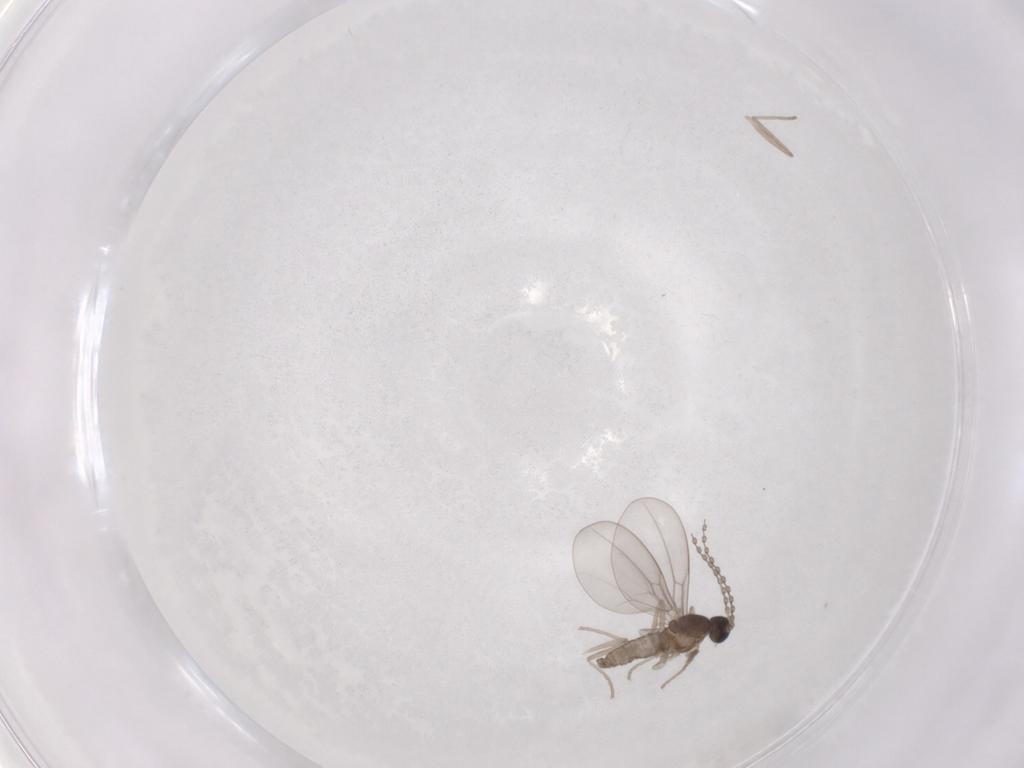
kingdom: Animalia
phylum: Arthropoda
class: Insecta
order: Diptera
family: Cecidomyiidae
